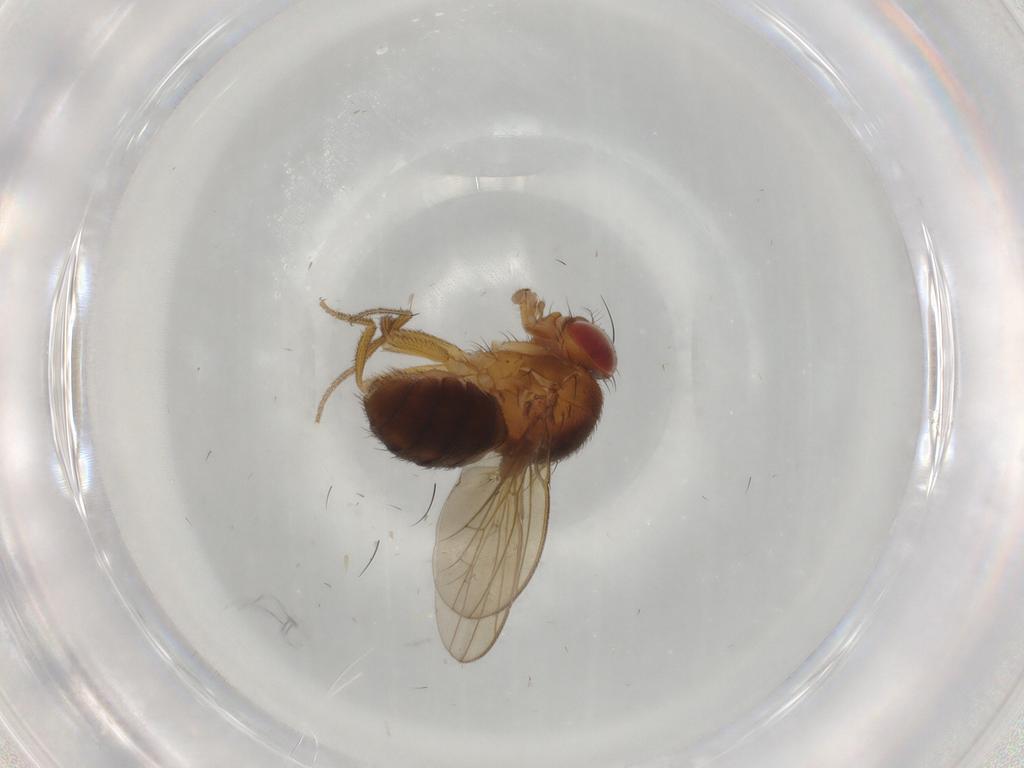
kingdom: Animalia
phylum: Arthropoda
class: Insecta
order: Diptera
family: Drosophilidae
